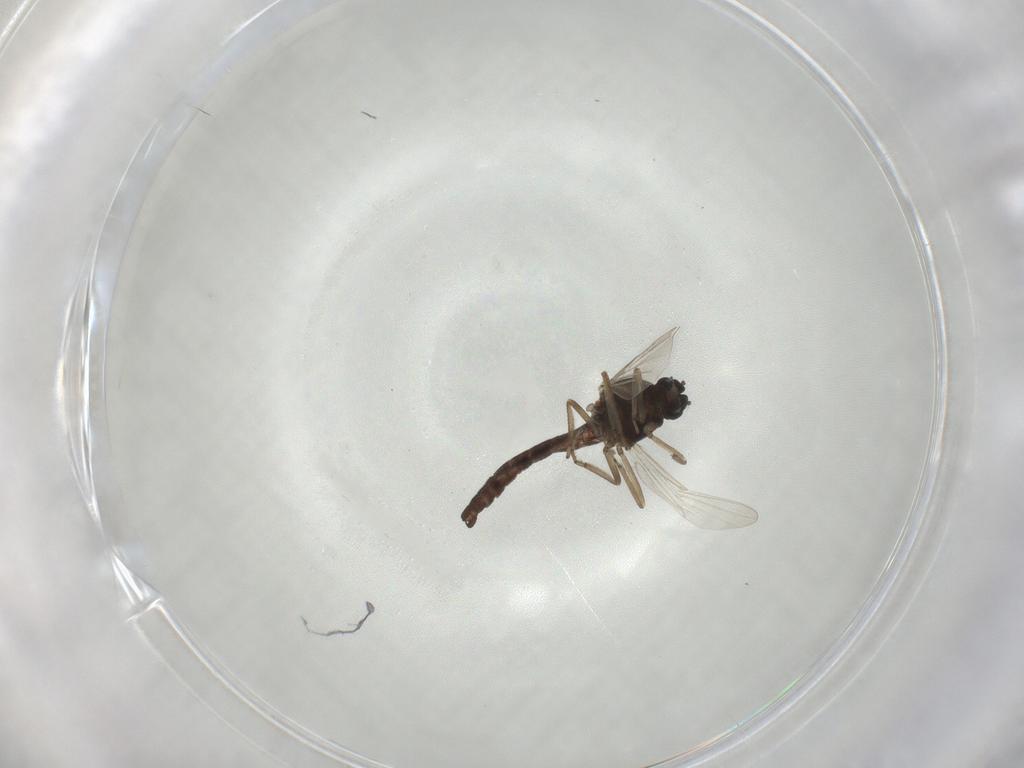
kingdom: Animalia
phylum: Arthropoda
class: Insecta
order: Diptera
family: Ceratopogonidae
